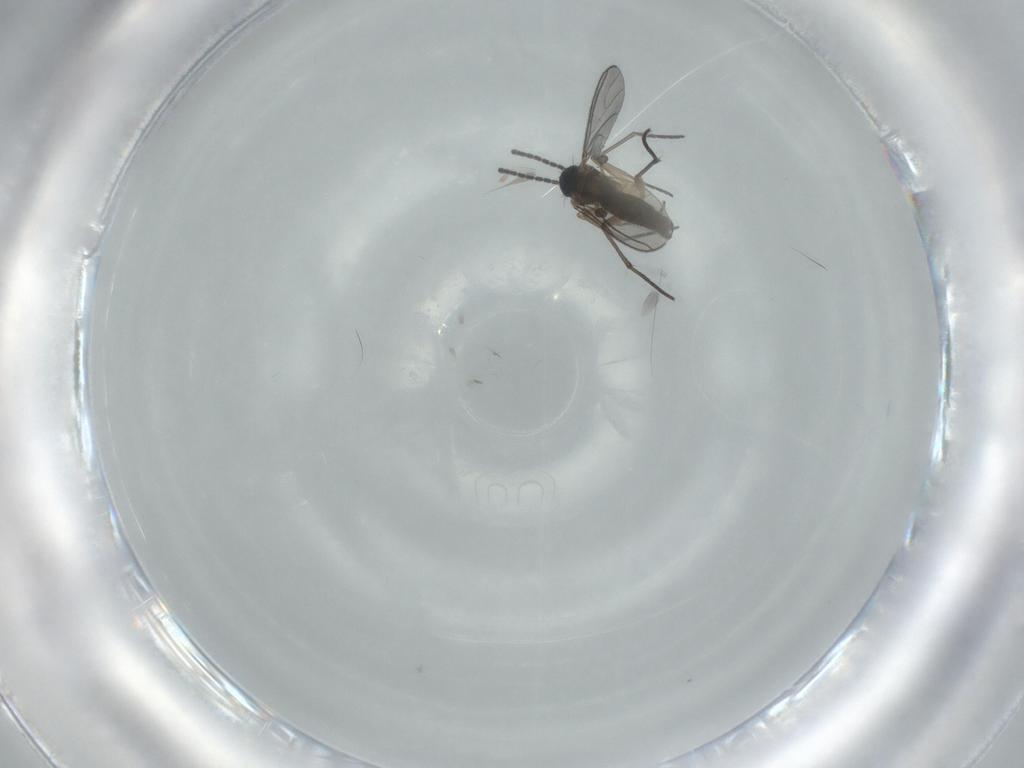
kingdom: Animalia
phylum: Arthropoda
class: Insecta
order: Diptera
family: Sciaridae
